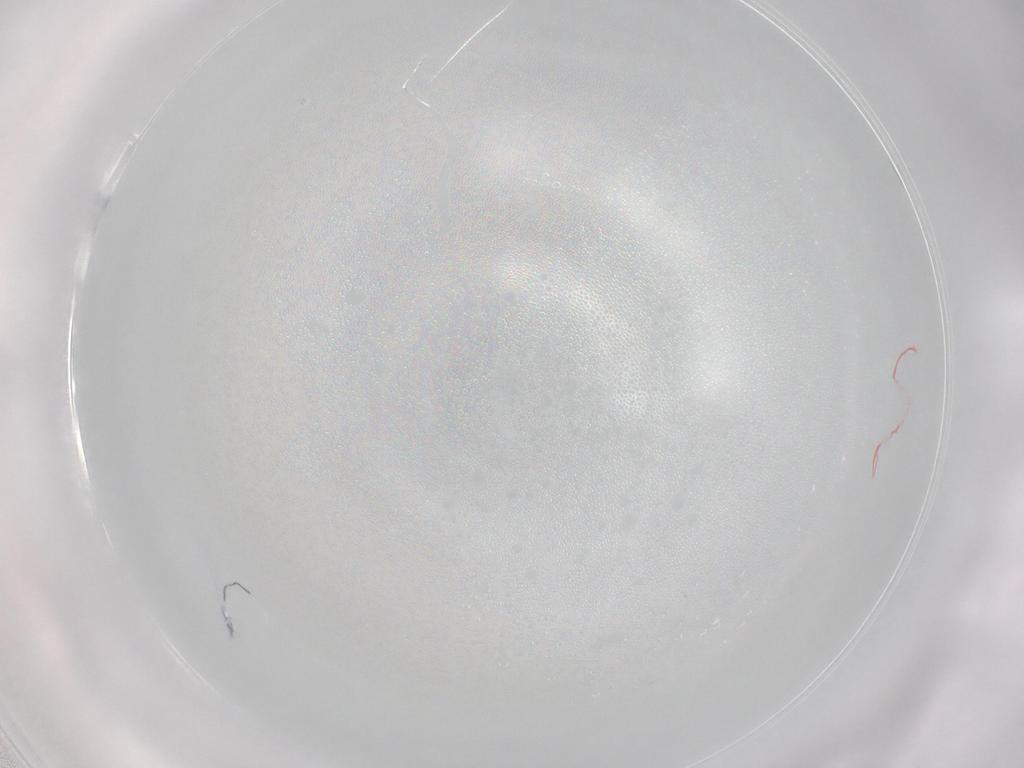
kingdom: Animalia
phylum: Arthropoda
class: Insecta
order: Diptera
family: Phoridae
